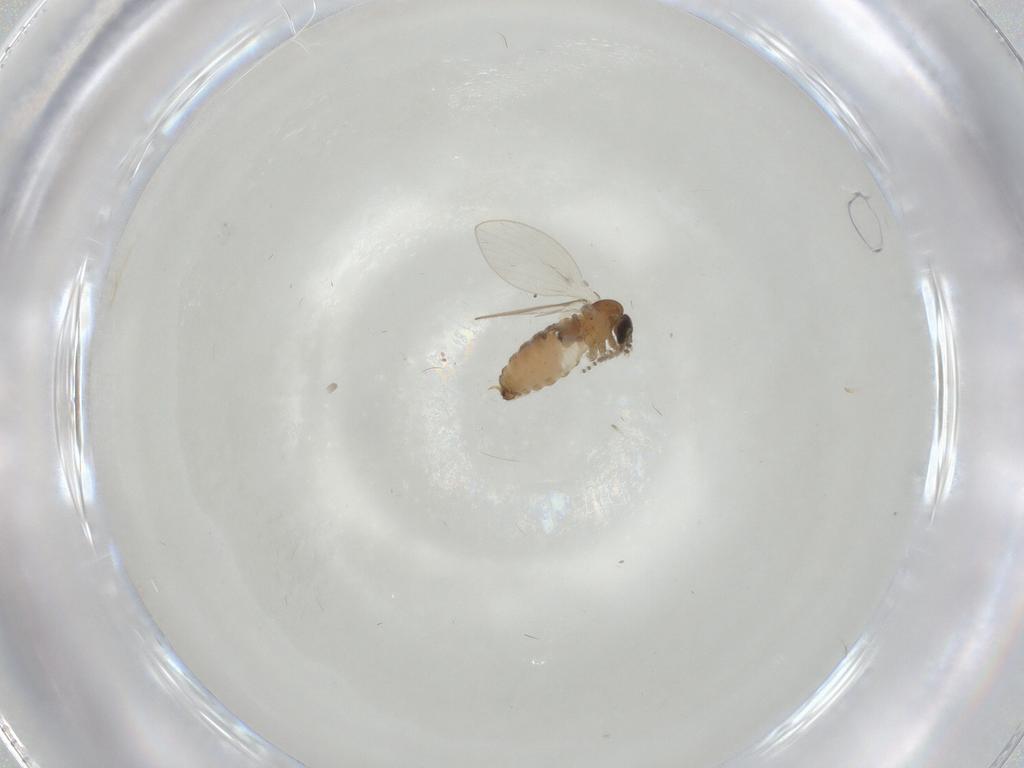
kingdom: Animalia
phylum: Arthropoda
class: Insecta
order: Diptera
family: Psychodidae
